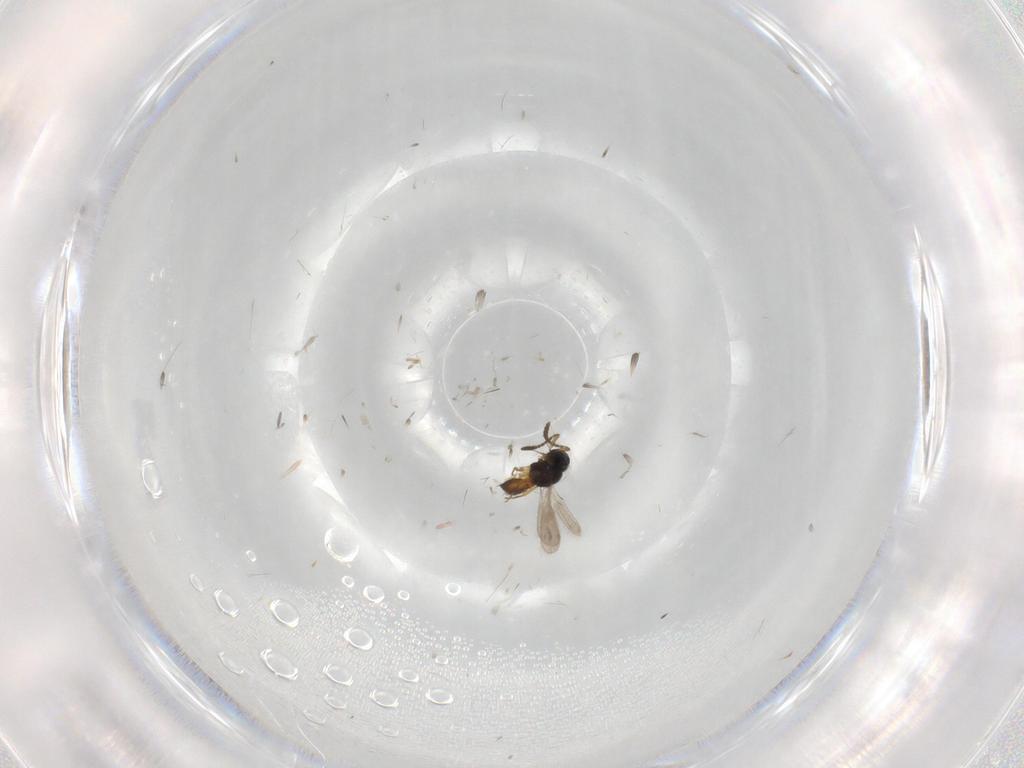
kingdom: Animalia
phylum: Arthropoda
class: Insecta
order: Hymenoptera
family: Scelionidae
